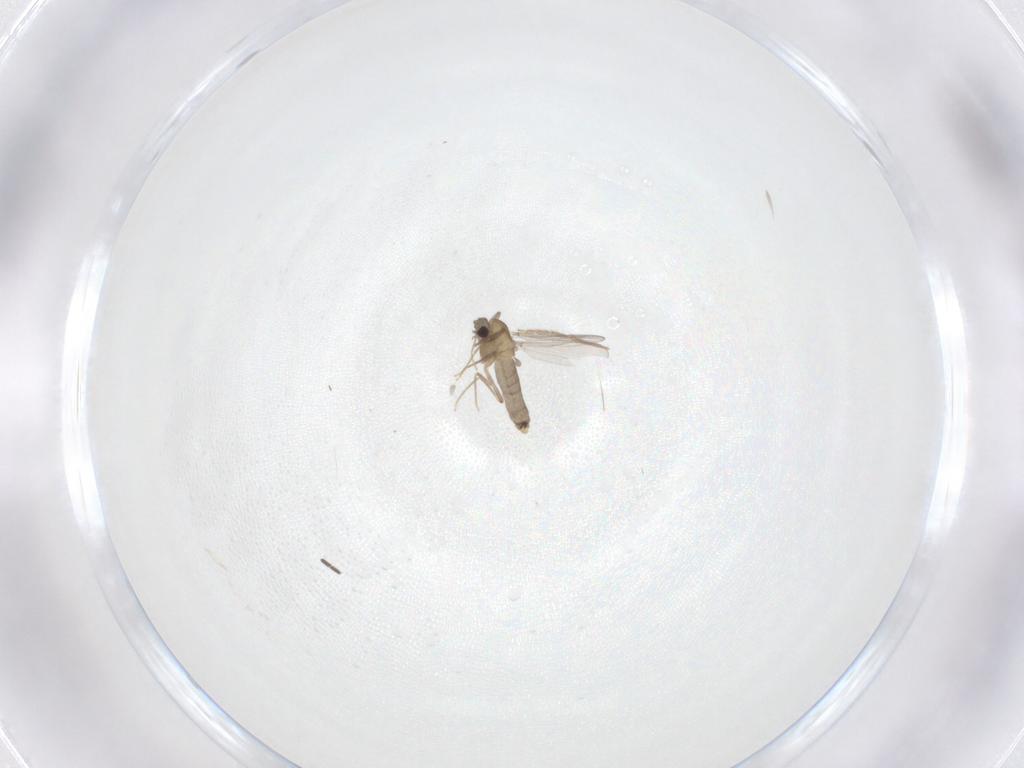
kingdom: Animalia
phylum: Arthropoda
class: Insecta
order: Diptera
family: Chironomidae
